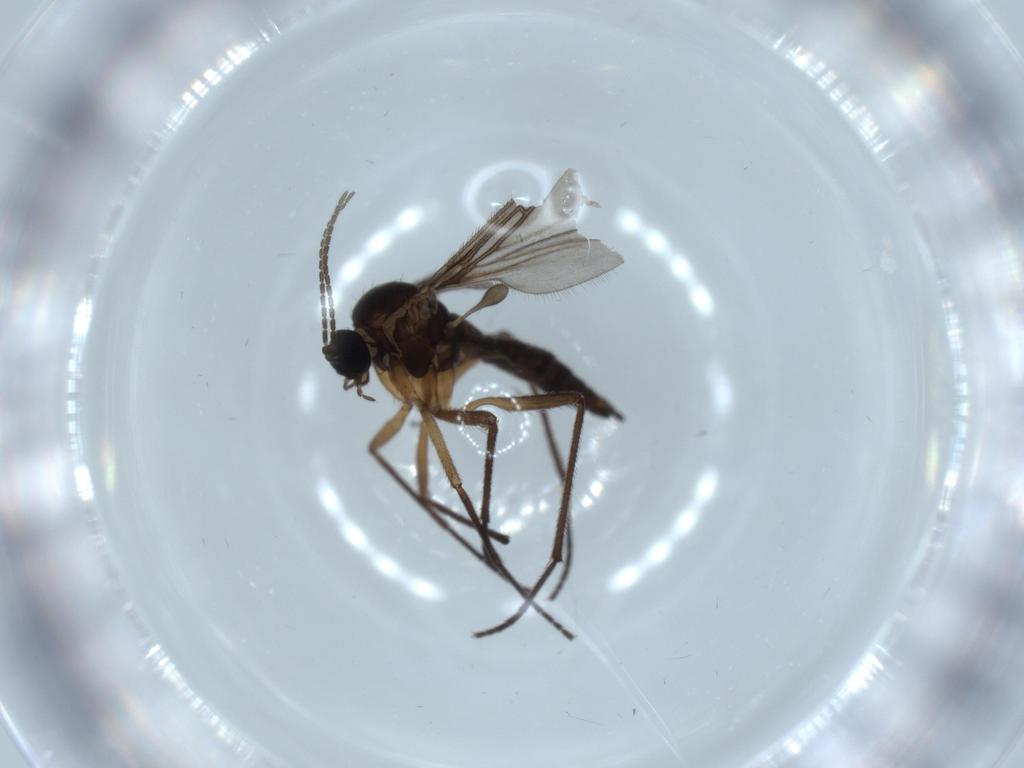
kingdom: Animalia
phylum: Arthropoda
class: Insecta
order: Diptera
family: Sciaridae
